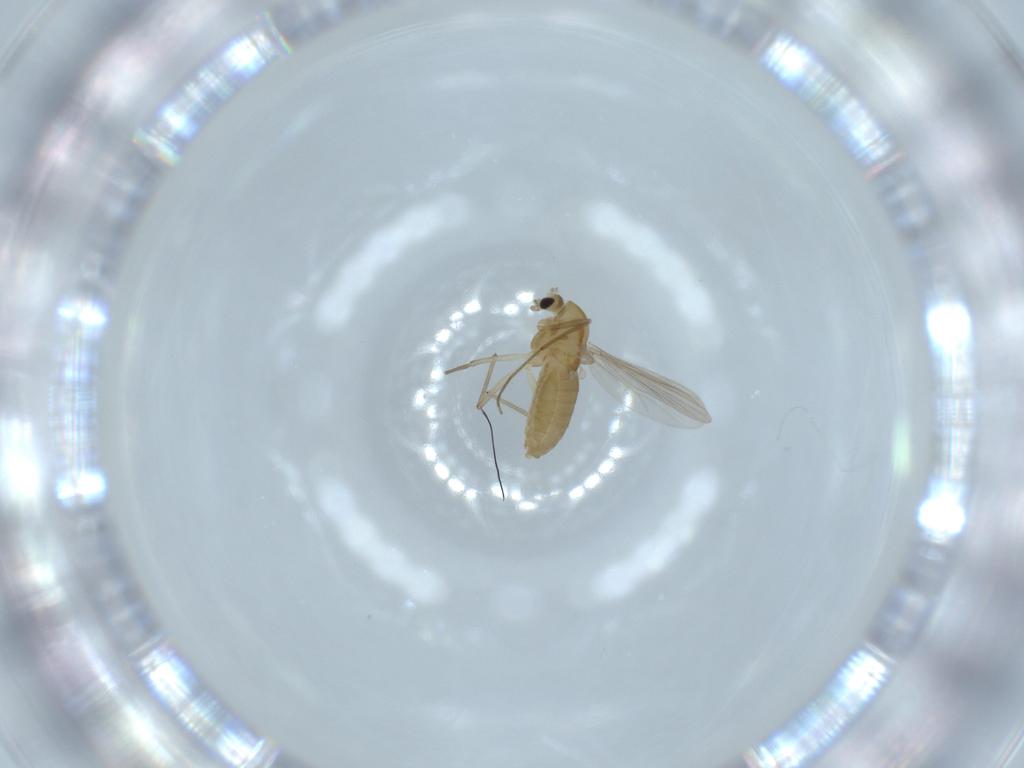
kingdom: Animalia
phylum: Arthropoda
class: Insecta
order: Diptera
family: Chironomidae
